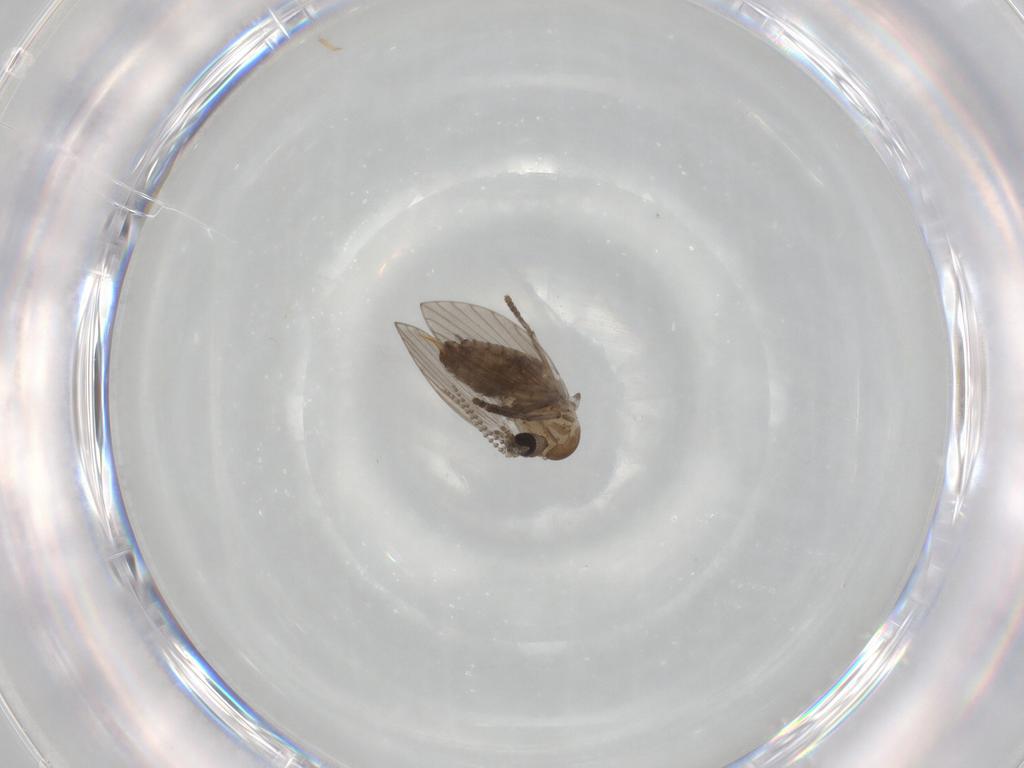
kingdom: Animalia
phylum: Arthropoda
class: Insecta
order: Diptera
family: Psychodidae
